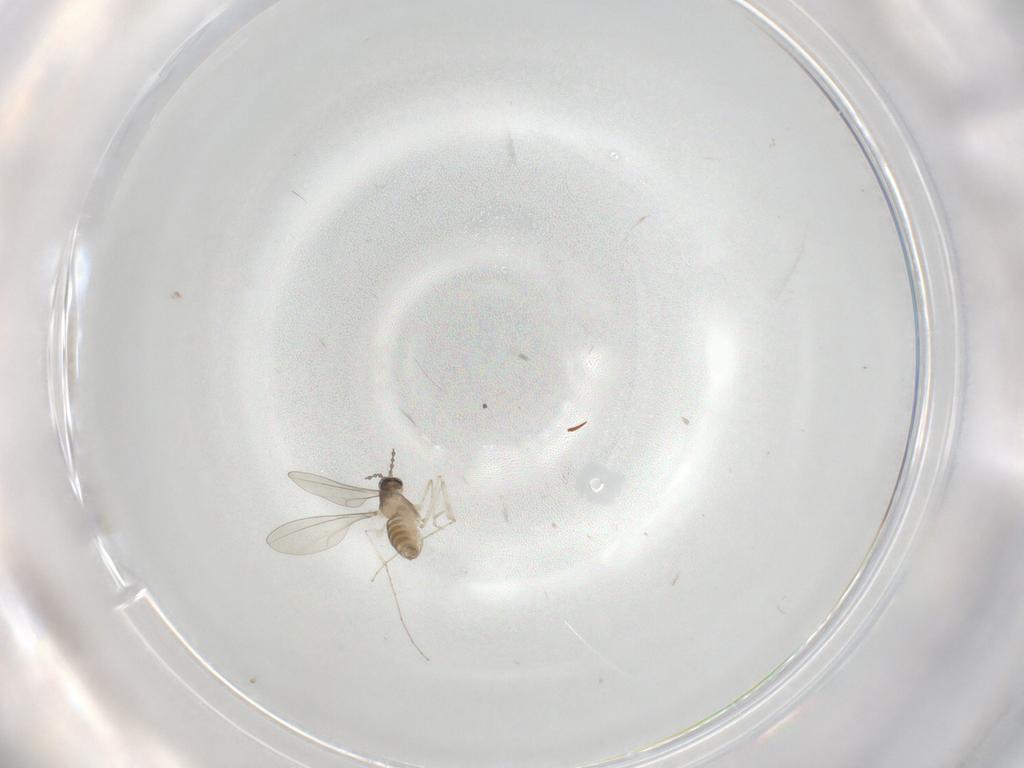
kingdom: Animalia
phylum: Arthropoda
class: Insecta
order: Diptera
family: Cecidomyiidae
